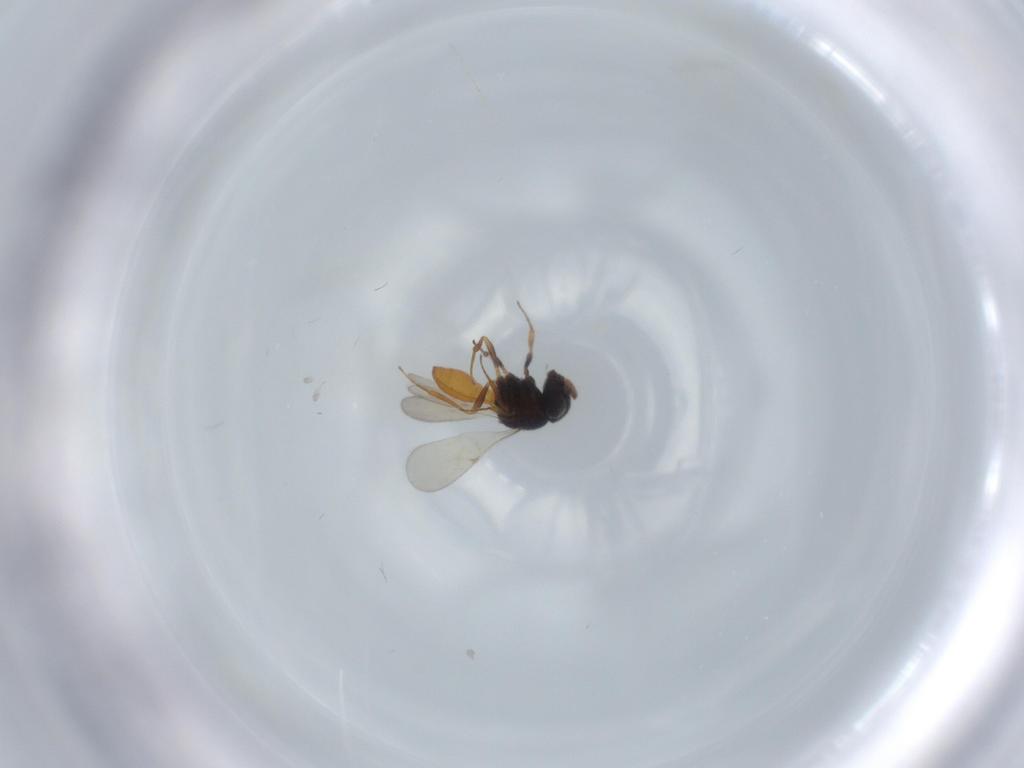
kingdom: Animalia
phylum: Arthropoda
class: Insecta
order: Hymenoptera
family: Scelionidae
